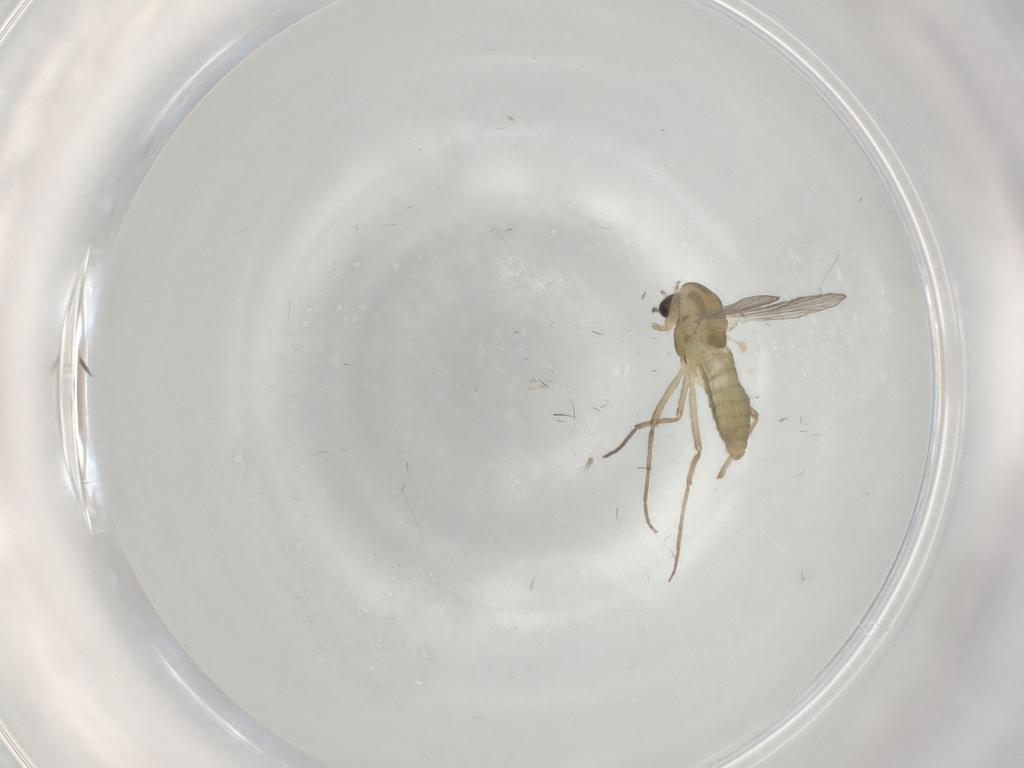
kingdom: Animalia
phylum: Arthropoda
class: Insecta
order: Diptera
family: Chironomidae
